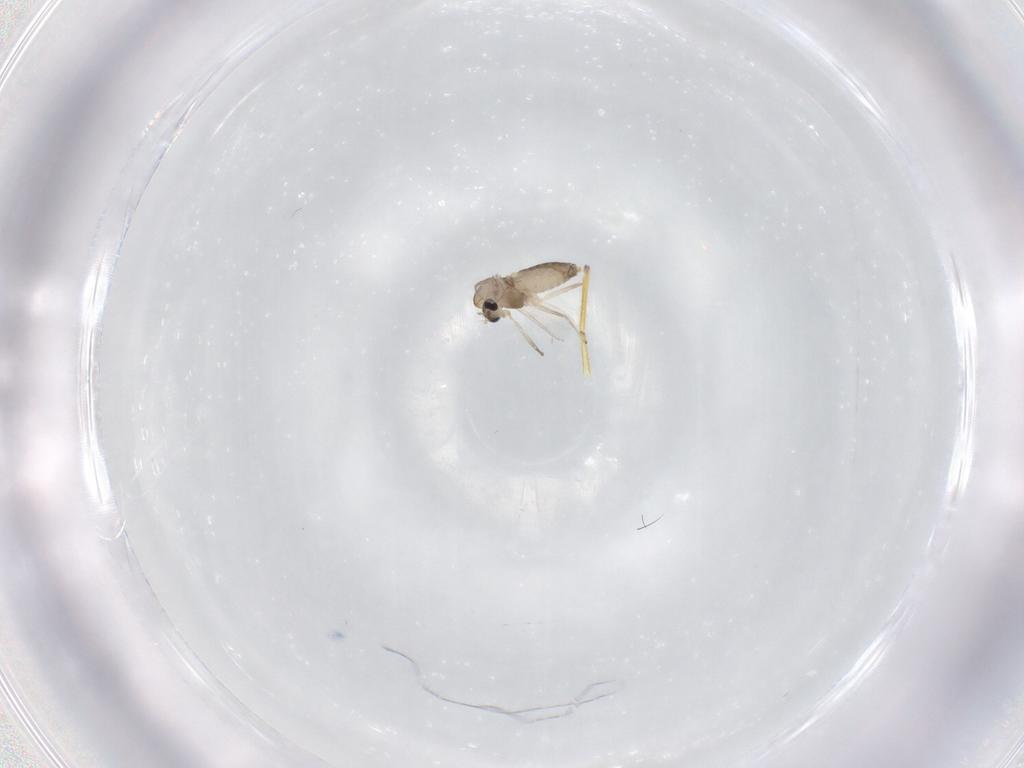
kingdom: Animalia
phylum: Arthropoda
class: Insecta
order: Diptera
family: Chironomidae
